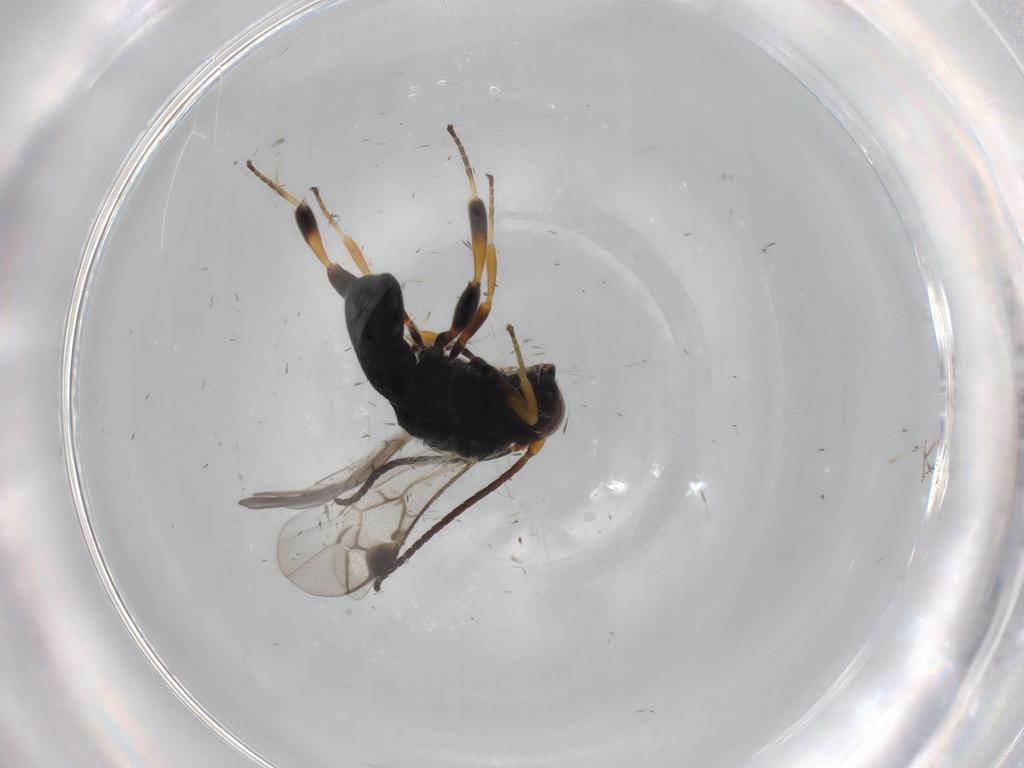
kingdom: Animalia
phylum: Arthropoda
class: Insecta
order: Hymenoptera
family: Braconidae
